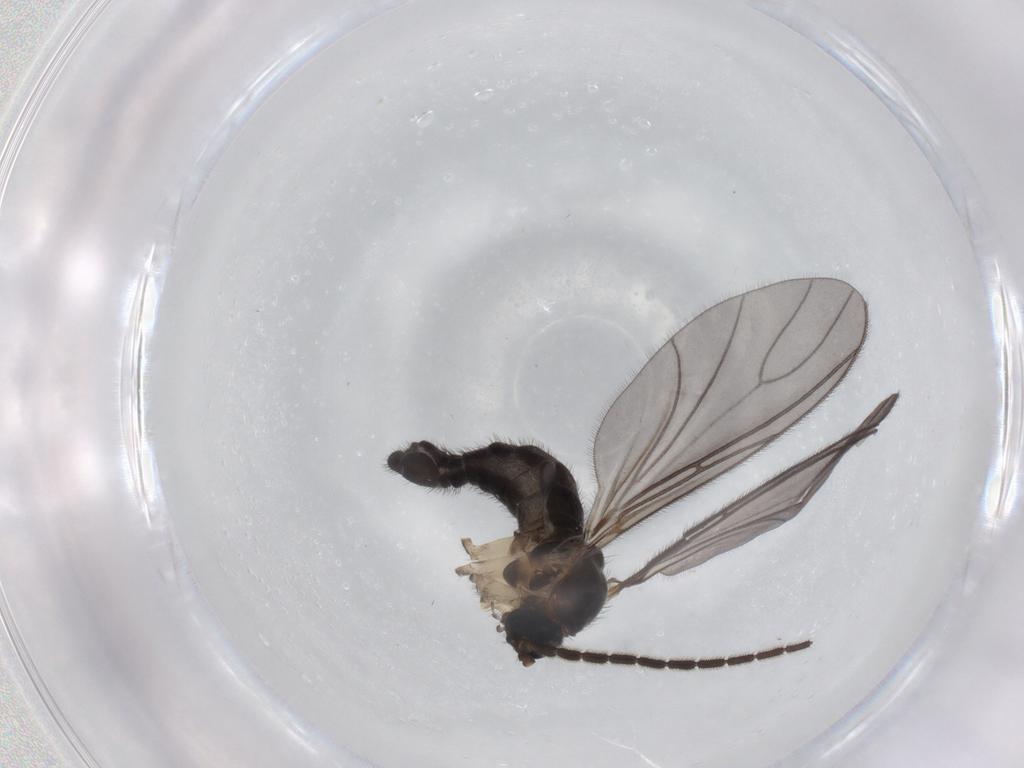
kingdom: Animalia
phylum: Arthropoda
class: Insecta
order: Diptera
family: Sciaridae
